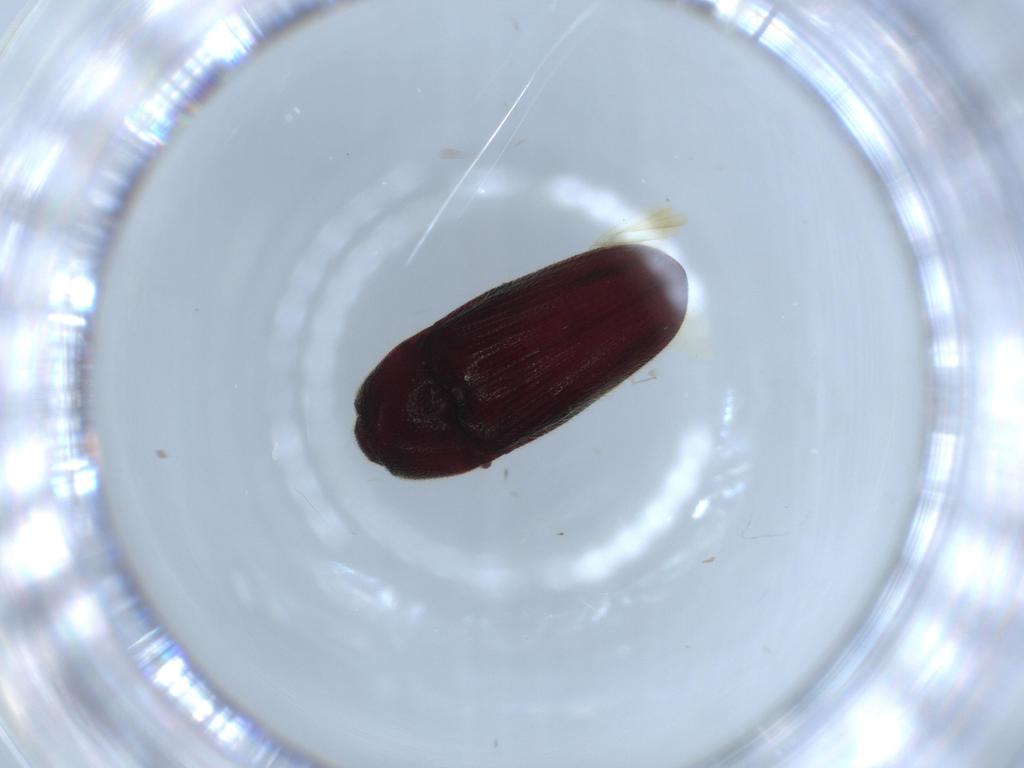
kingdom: Animalia
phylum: Arthropoda
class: Insecta
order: Coleoptera
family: Throscidae
